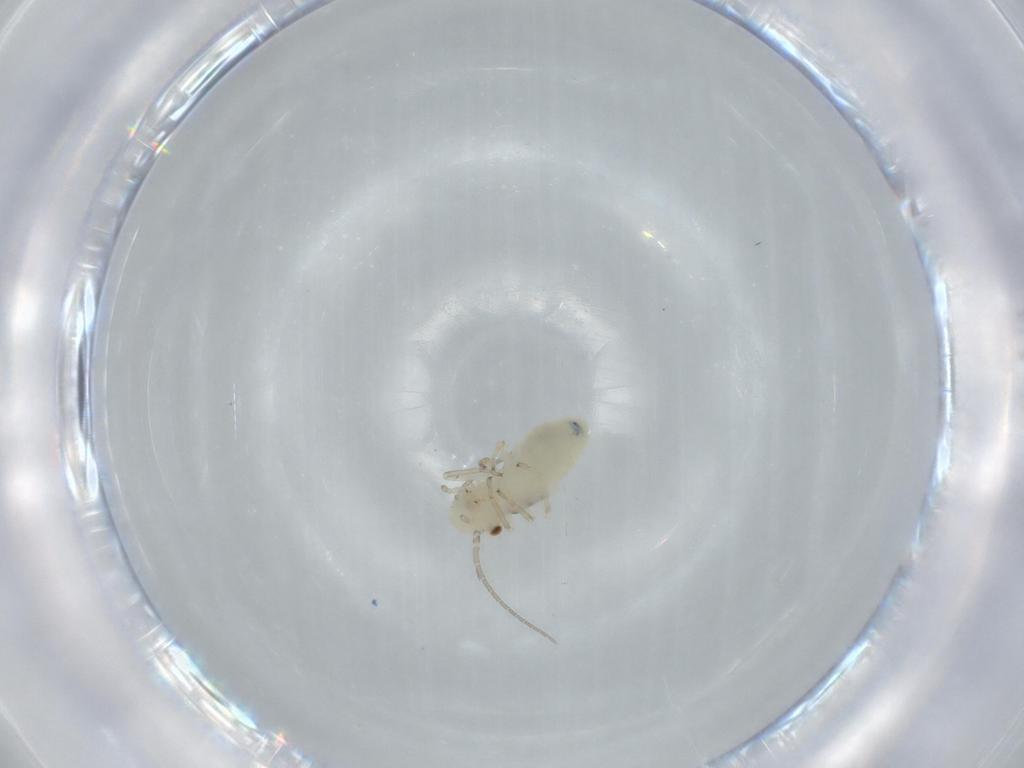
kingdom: Animalia
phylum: Arthropoda
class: Insecta
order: Psocodea
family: Caeciliusidae
